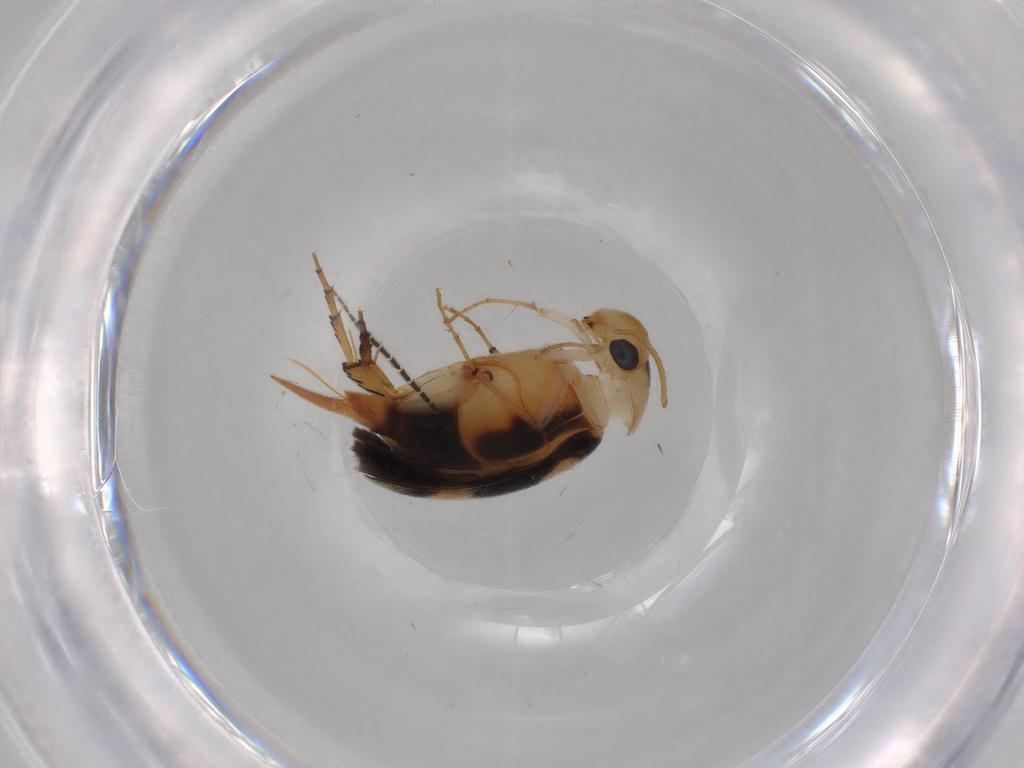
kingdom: Animalia
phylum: Arthropoda
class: Insecta
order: Coleoptera
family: Mordellidae
